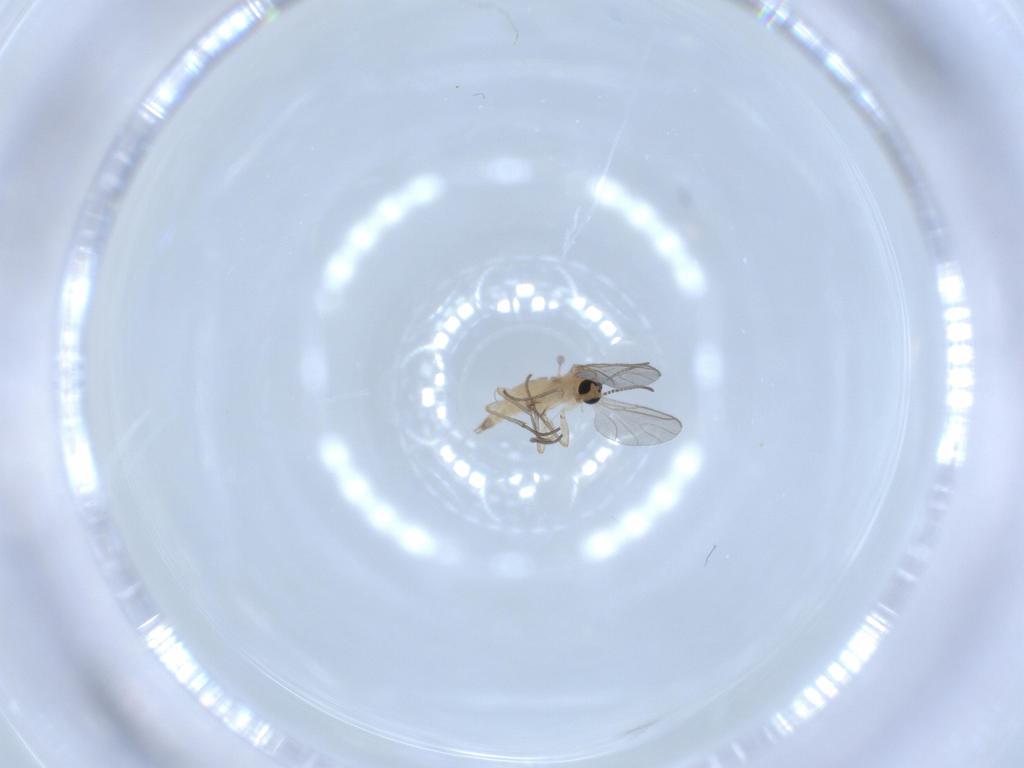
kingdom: Animalia
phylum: Arthropoda
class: Insecta
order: Diptera
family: Sciaridae
